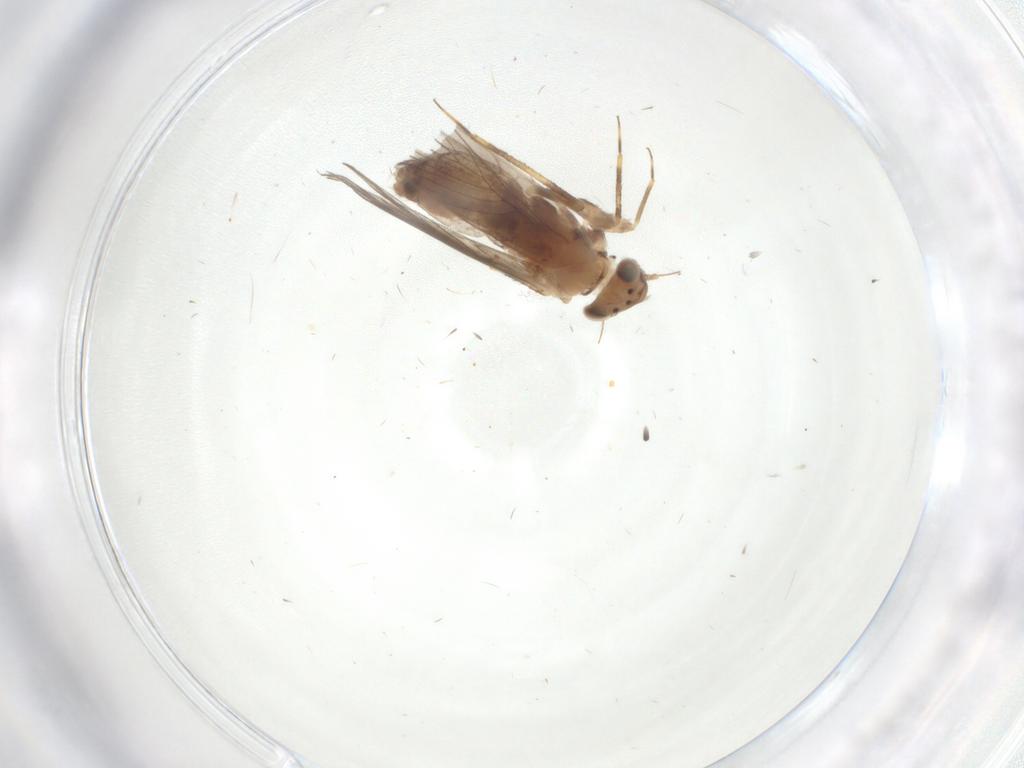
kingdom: Animalia
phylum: Arthropoda
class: Insecta
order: Psocodea
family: Lepidopsocidae
